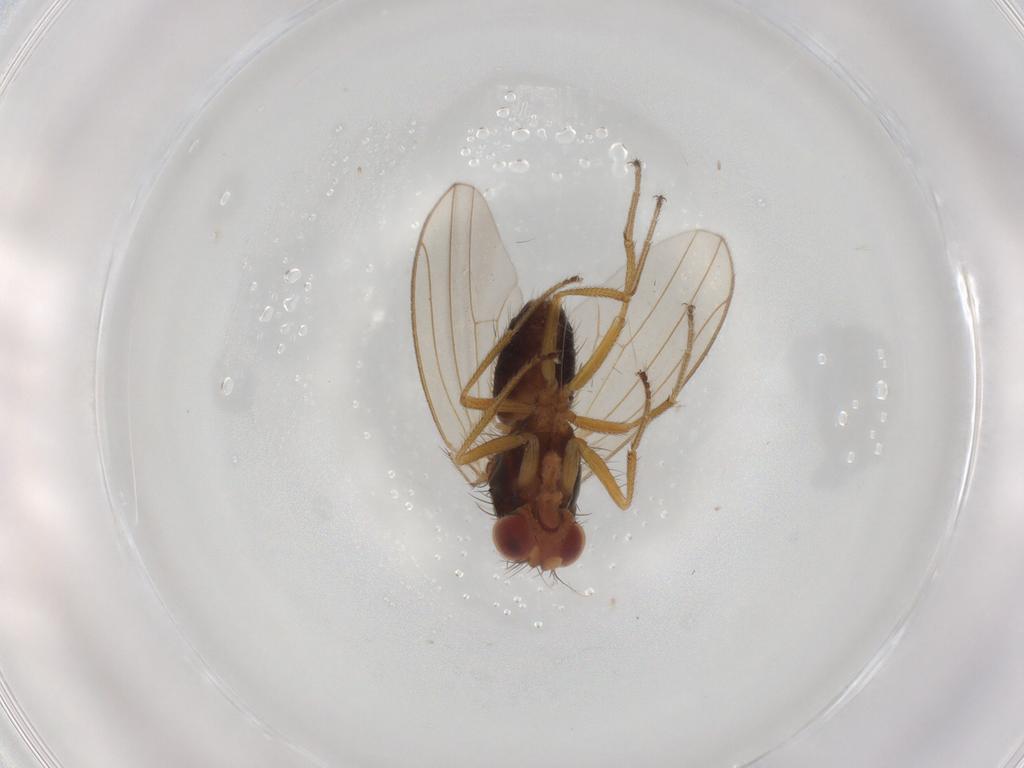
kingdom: Animalia
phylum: Arthropoda
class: Insecta
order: Diptera
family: Drosophilidae
